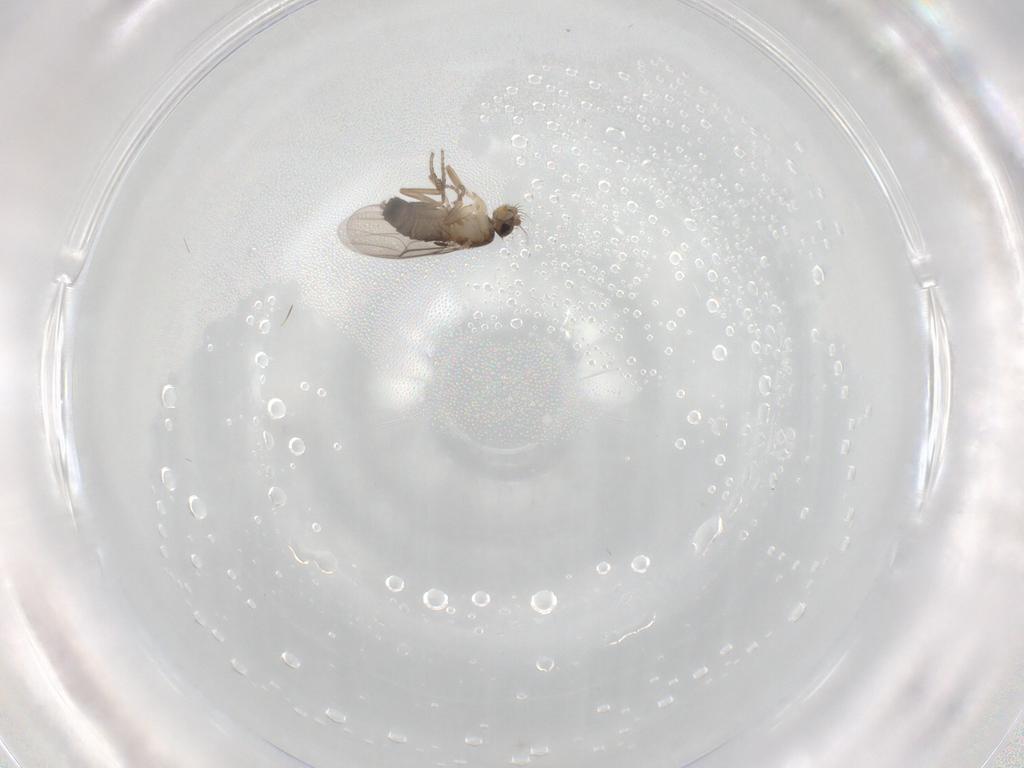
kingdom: Animalia
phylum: Arthropoda
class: Insecta
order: Diptera
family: Phoridae
